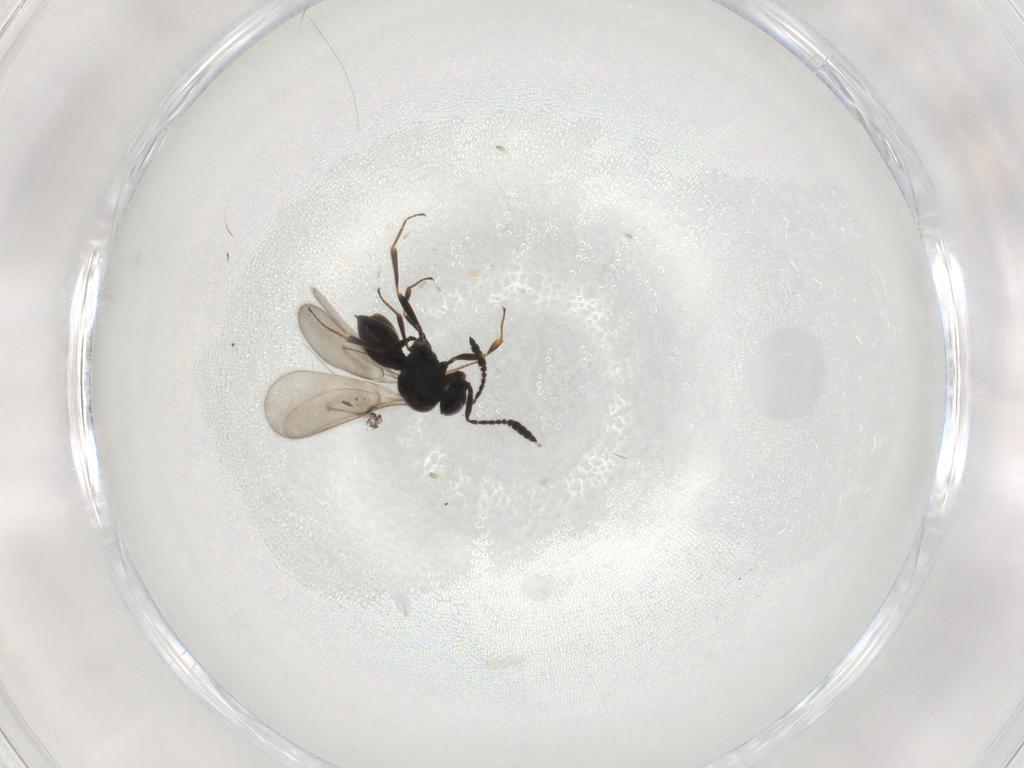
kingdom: Animalia
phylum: Arthropoda
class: Insecta
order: Hymenoptera
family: Scelionidae
